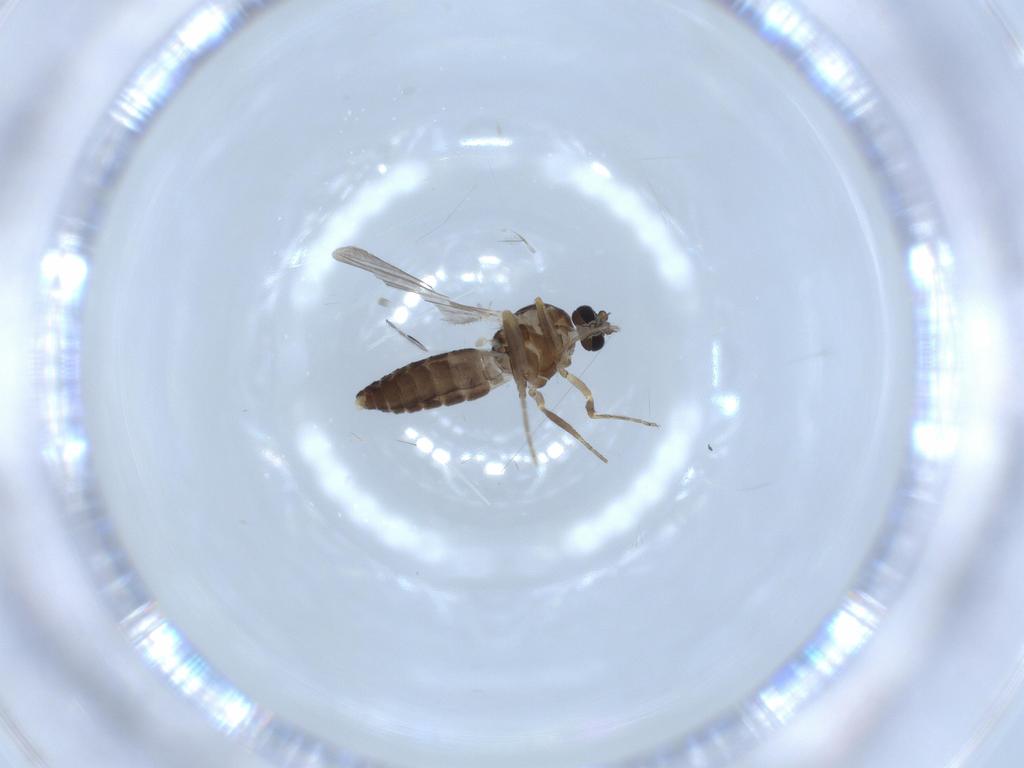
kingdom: Animalia
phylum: Arthropoda
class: Insecta
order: Diptera
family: Ceratopogonidae
